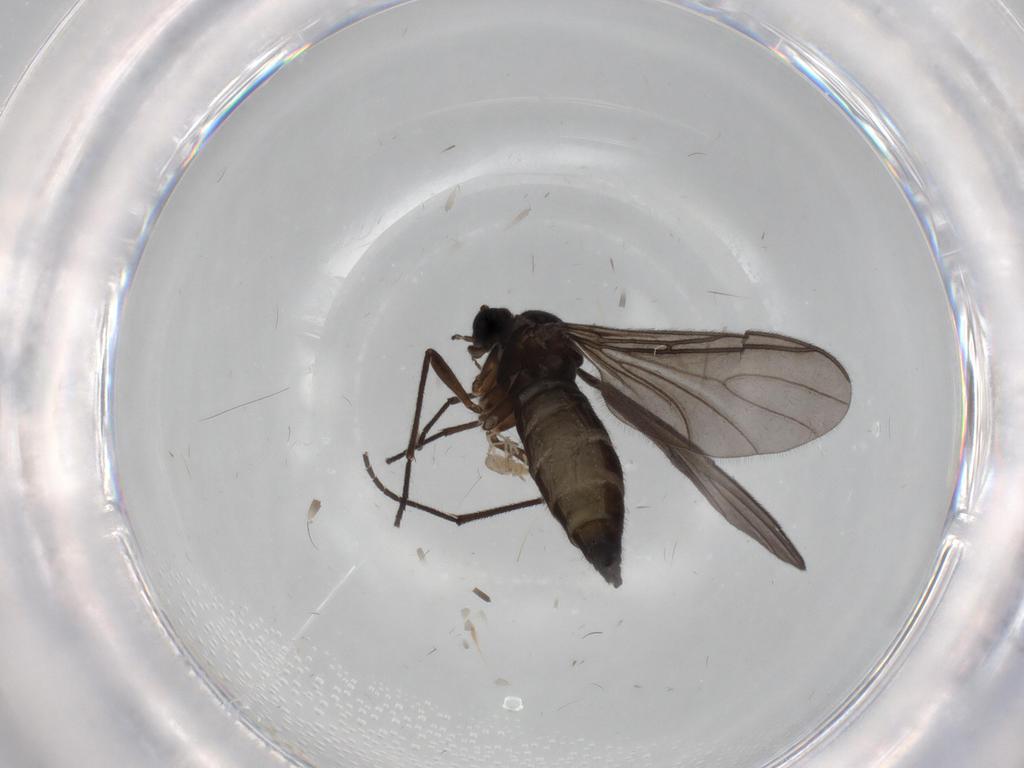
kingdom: Animalia
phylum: Arthropoda
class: Insecta
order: Diptera
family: Sciaridae
